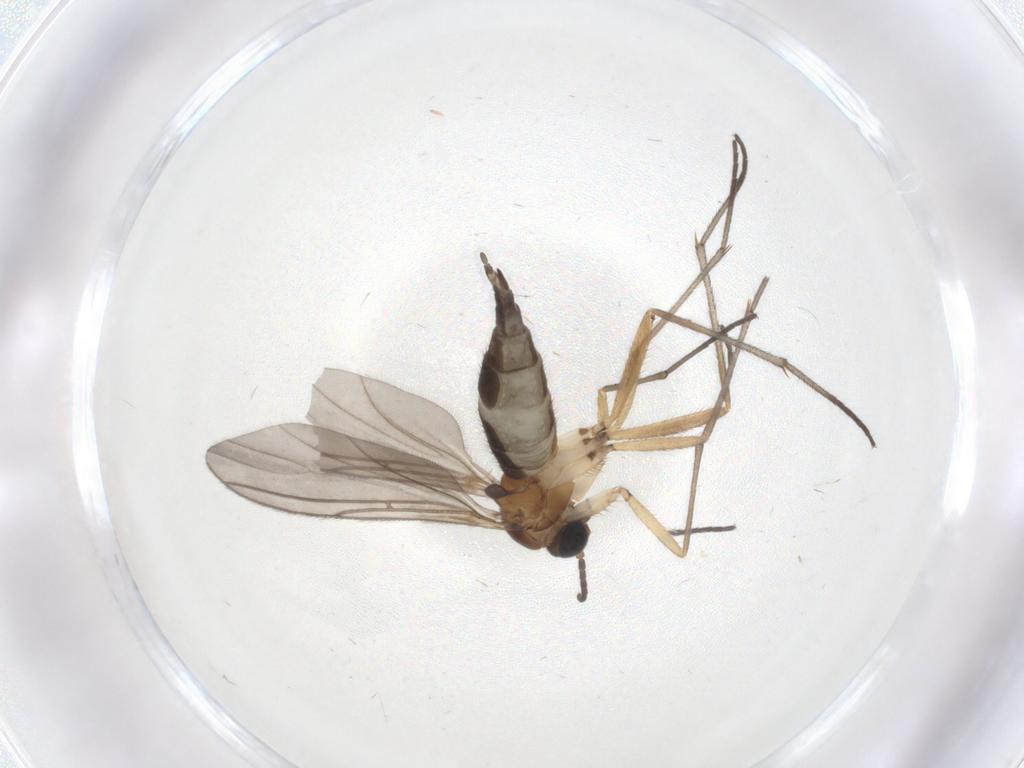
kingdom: Animalia
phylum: Arthropoda
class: Insecta
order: Diptera
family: Sciaridae
